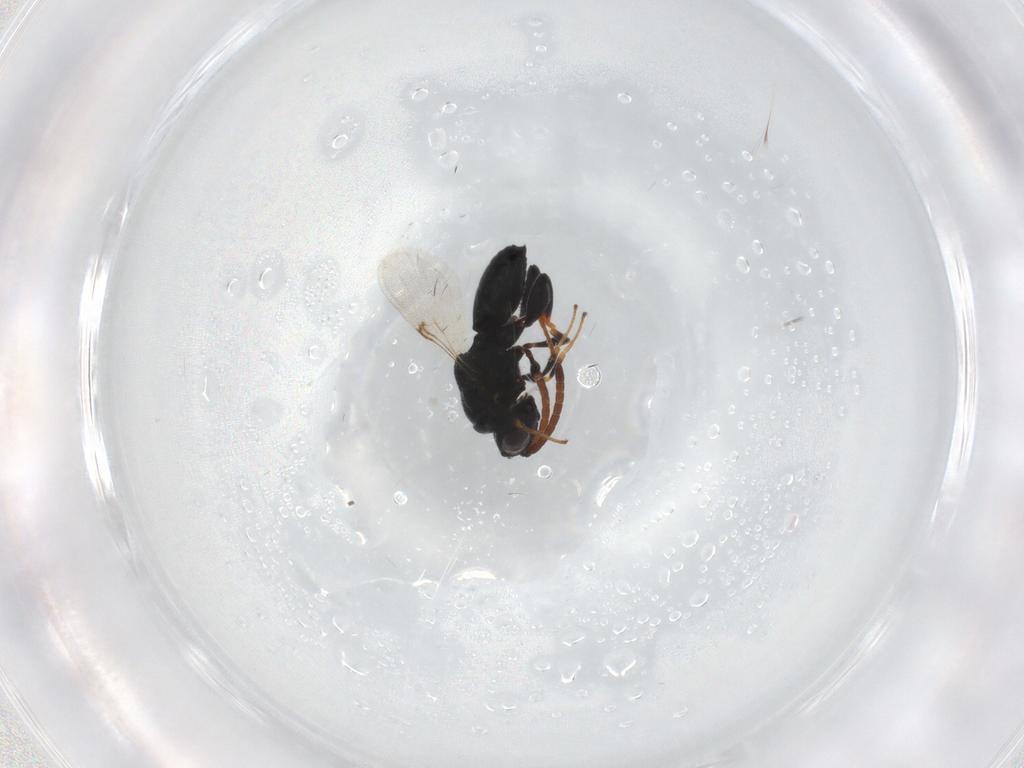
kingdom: Animalia
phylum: Arthropoda
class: Insecta
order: Hymenoptera
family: Chalcididae
